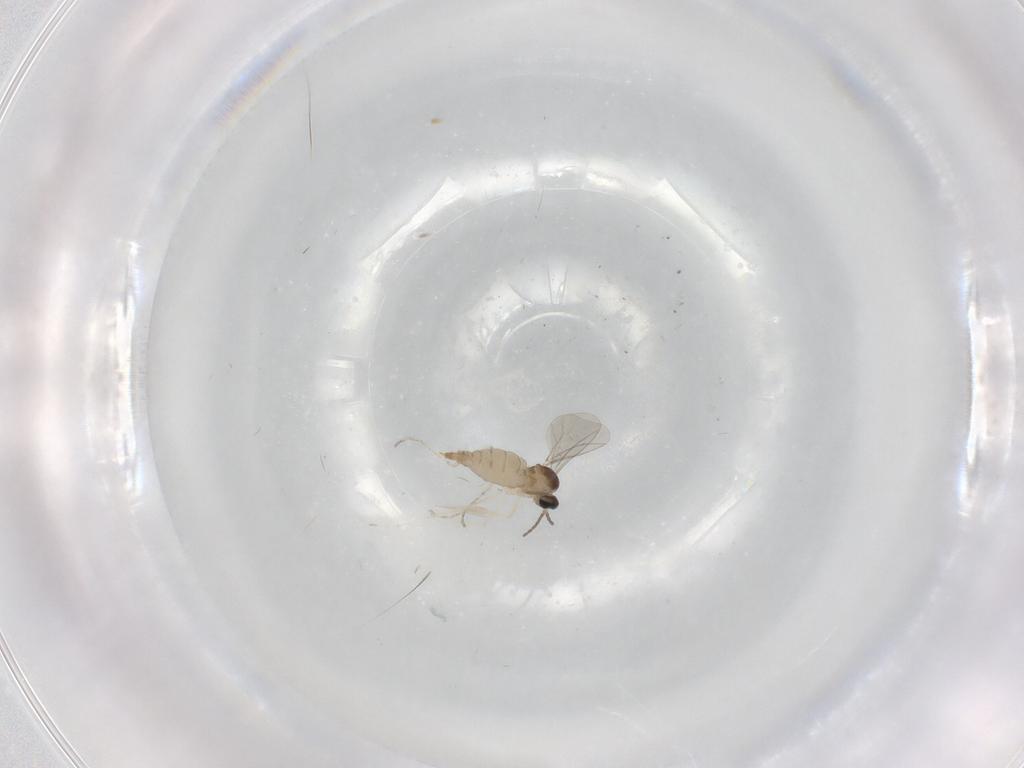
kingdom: Animalia
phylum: Arthropoda
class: Insecta
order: Diptera
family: Cecidomyiidae
